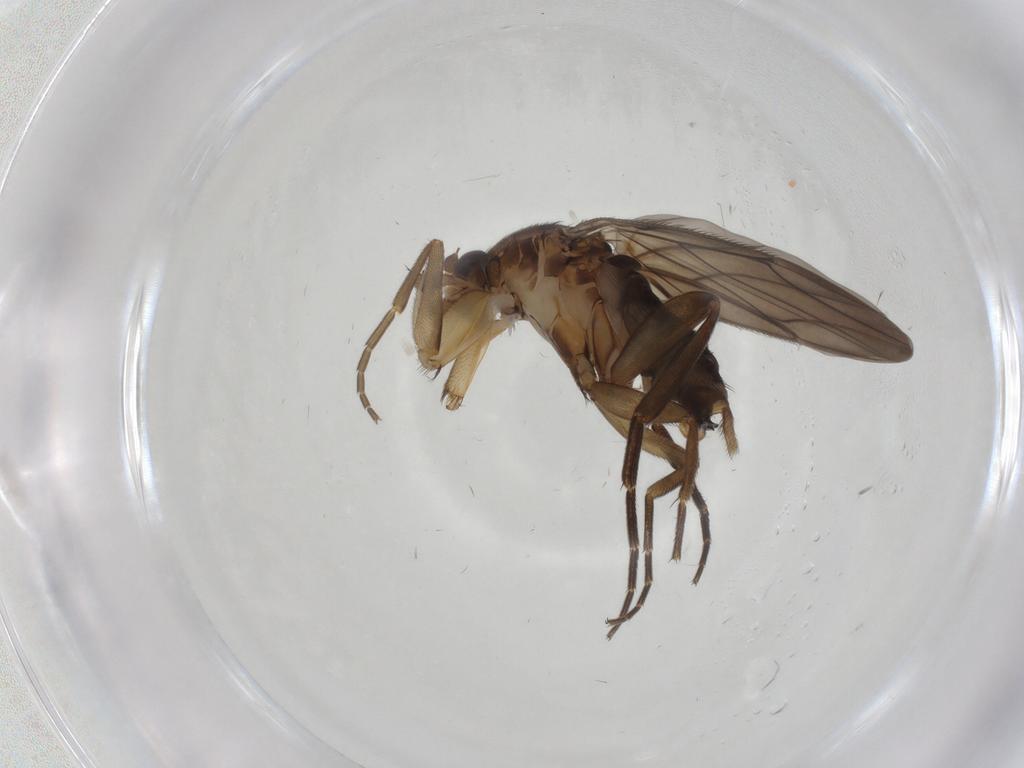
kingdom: Animalia
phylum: Arthropoda
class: Insecta
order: Diptera
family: Phoridae
